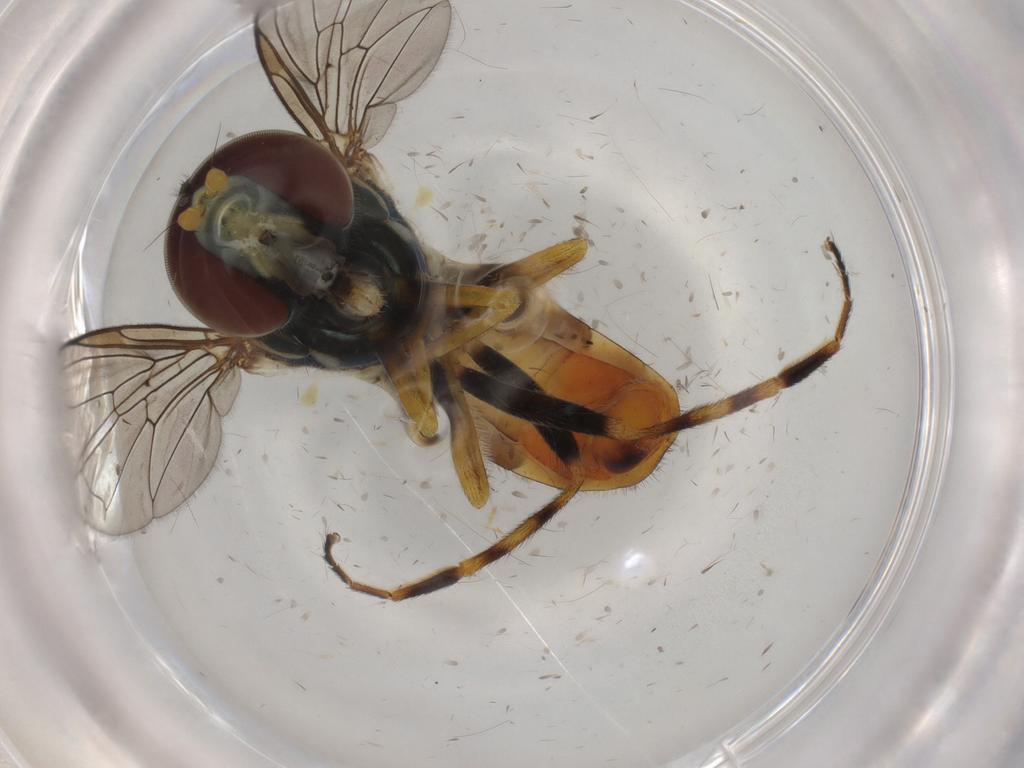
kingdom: Animalia
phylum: Arthropoda
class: Insecta
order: Diptera
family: Syrphidae
